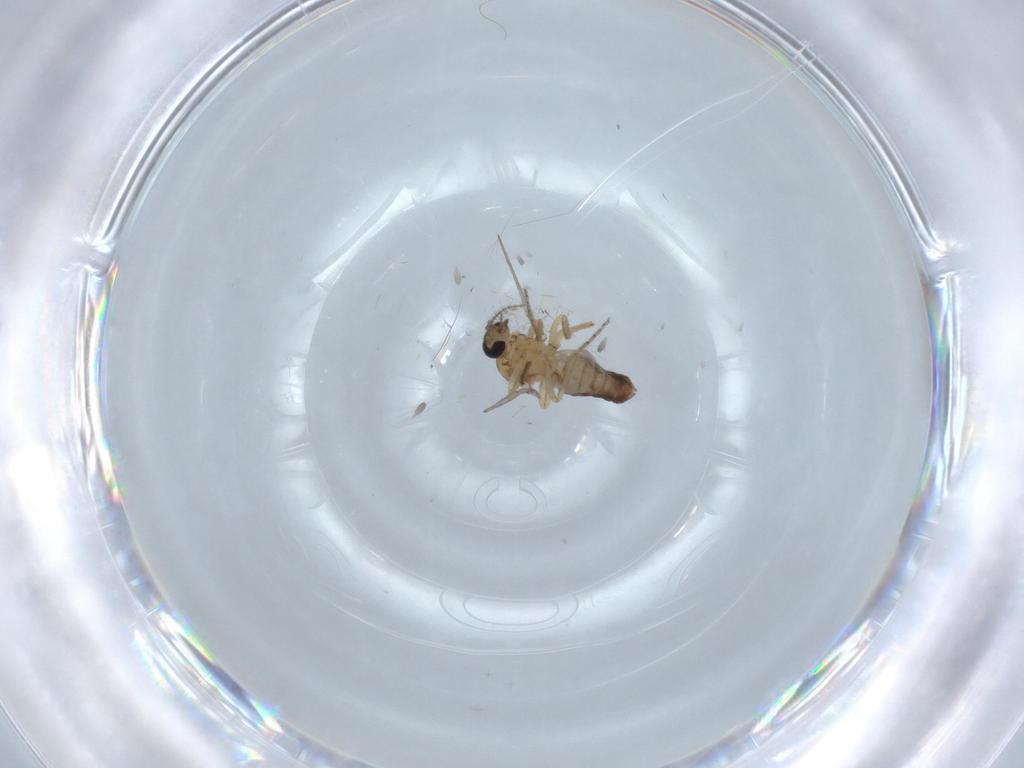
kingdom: Animalia
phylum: Arthropoda
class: Insecta
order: Diptera
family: Ceratopogonidae
